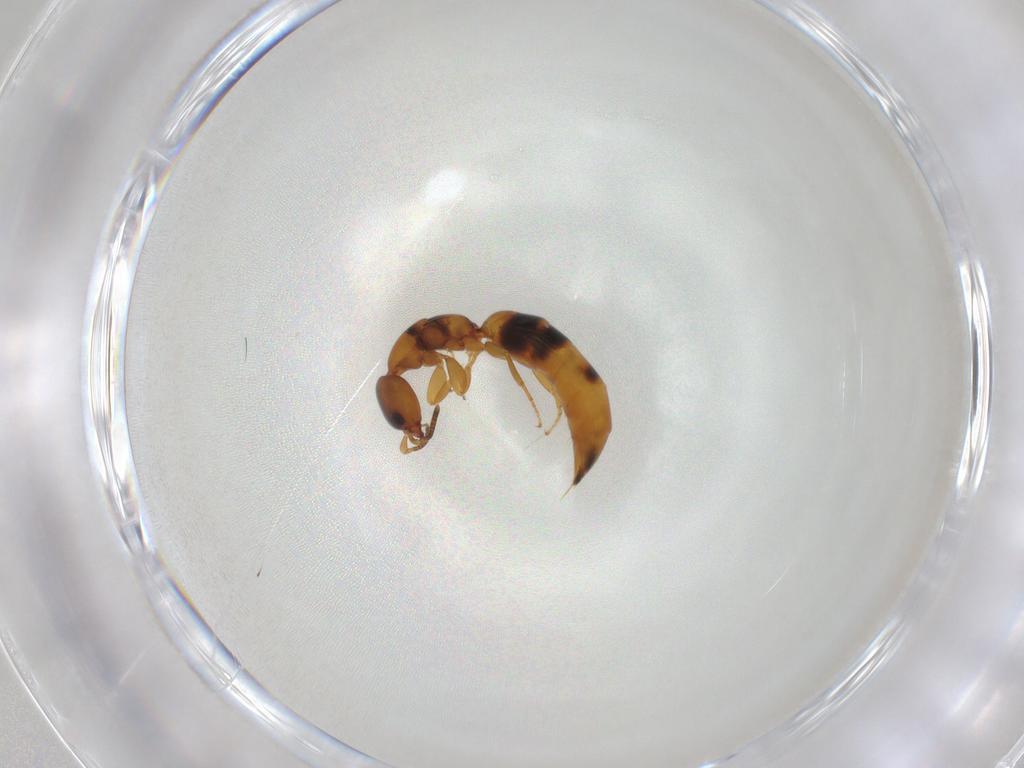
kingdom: Animalia
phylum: Arthropoda
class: Insecta
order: Hymenoptera
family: Bethylidae
